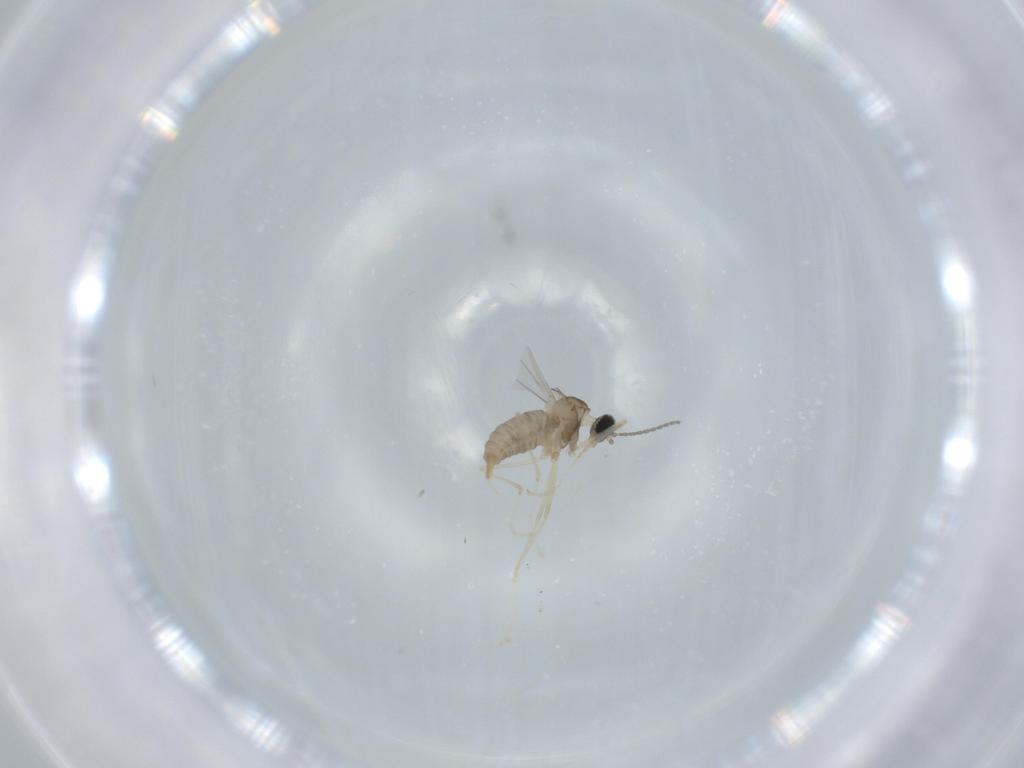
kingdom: Animalia
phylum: Arthropoda
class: Insecta
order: Diptera
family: Cecidomyiidae
